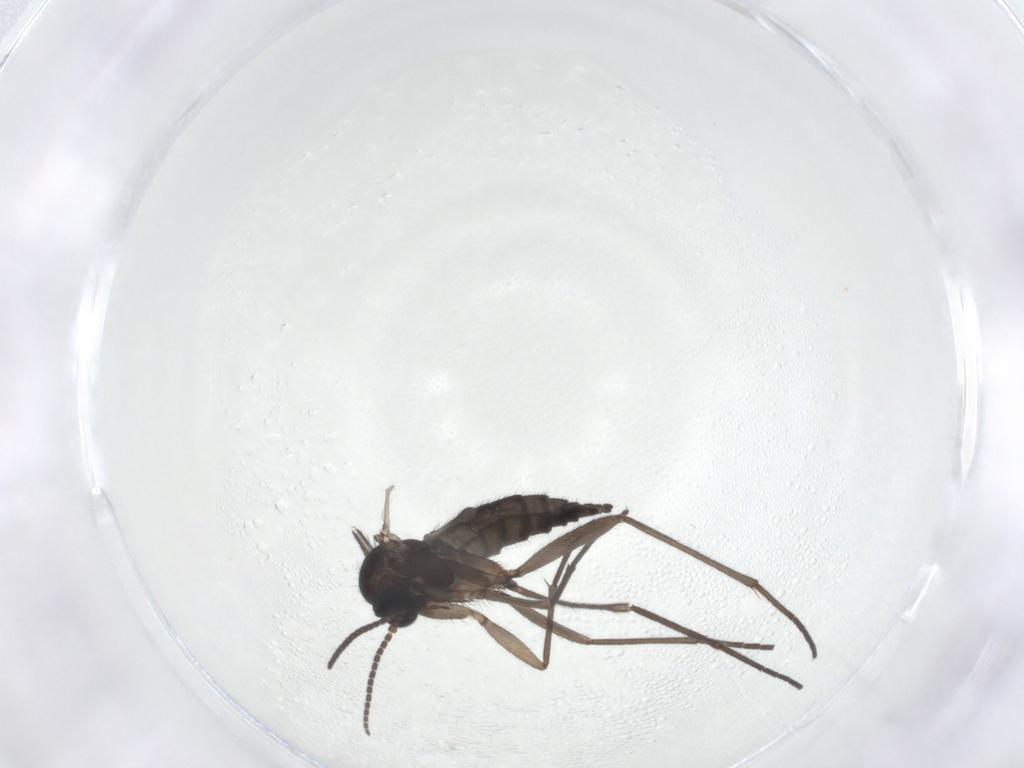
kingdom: Animalia
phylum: Arthropoda
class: Insecta
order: Diptera
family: Sciaridae
